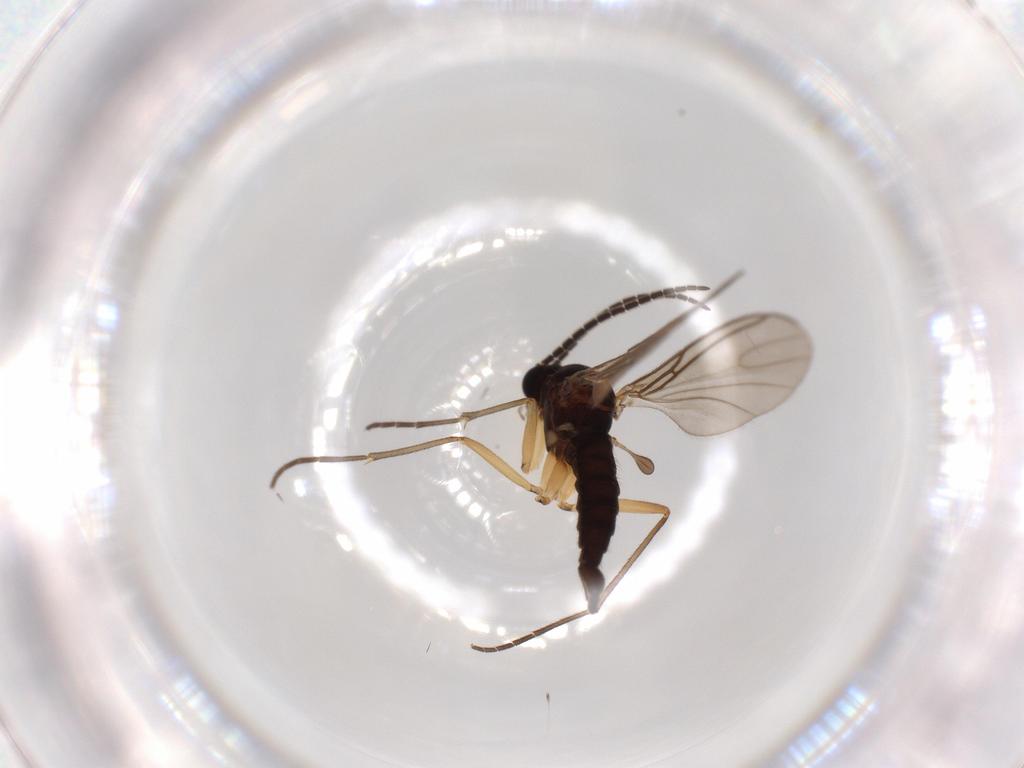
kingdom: Animalia
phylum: Arthropoda
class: Insecta
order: Diptera
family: Sciaridae
